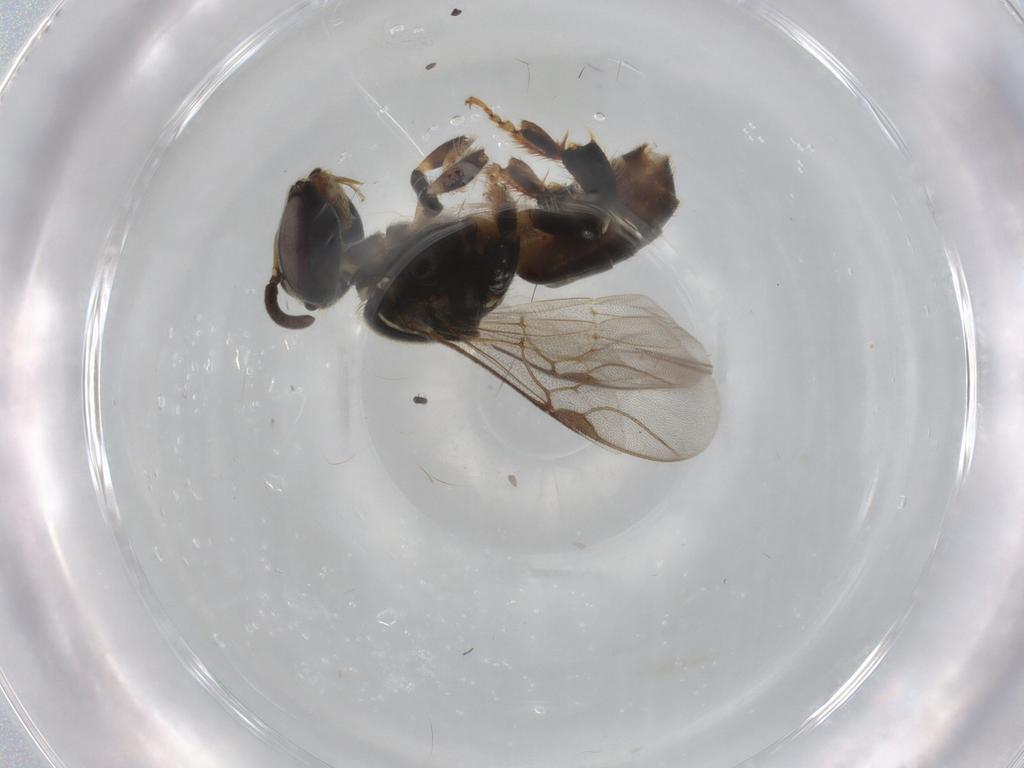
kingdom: Animalia
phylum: Arthropoda
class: Insecta
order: Hymenoptera
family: Apidae
